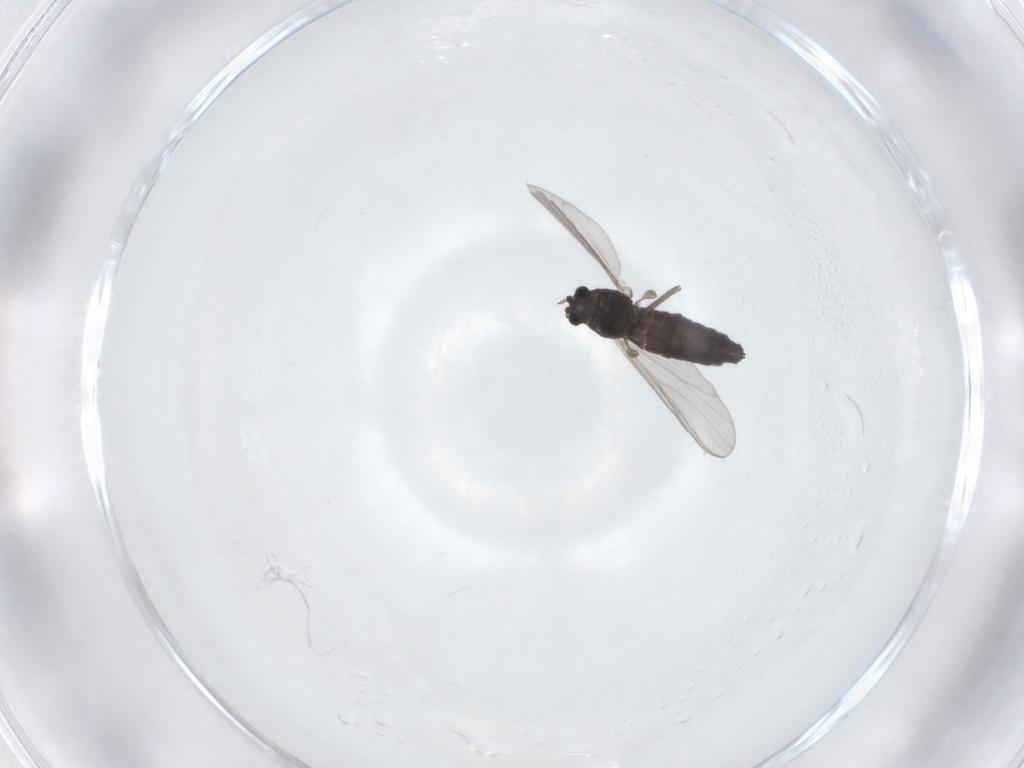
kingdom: Animalia
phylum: Arthropoda
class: Insecta
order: Diptera
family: Chironomidae
